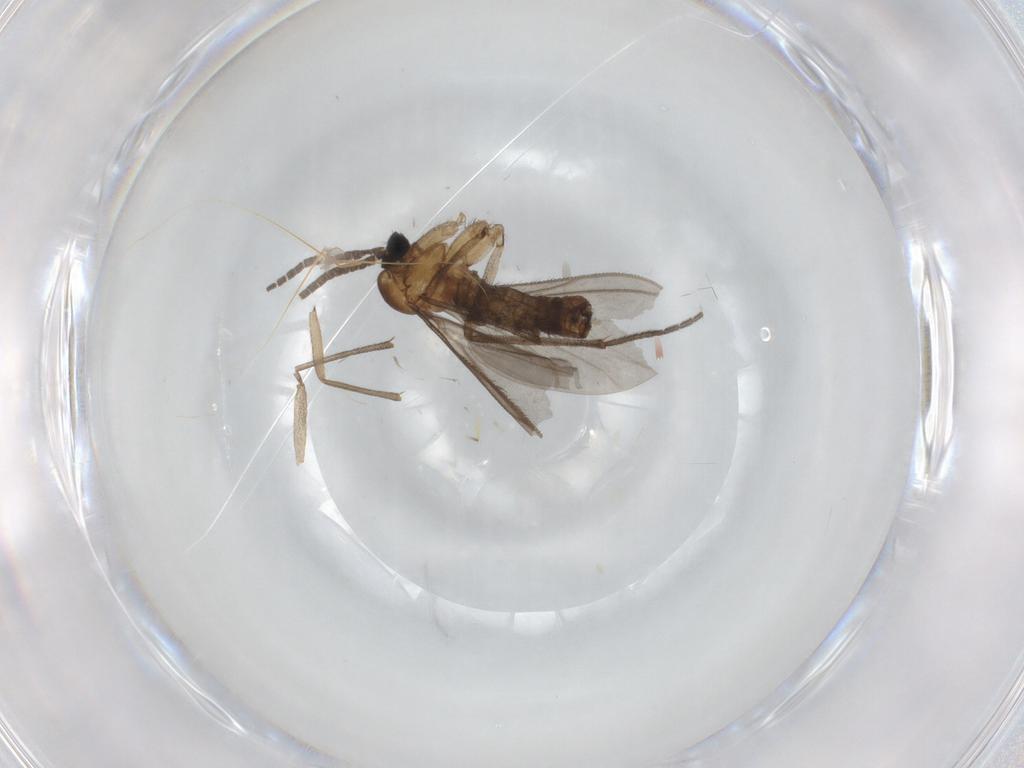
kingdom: Animalia
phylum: Arthropoda
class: Insecta
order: Diptera
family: Sciaridae
